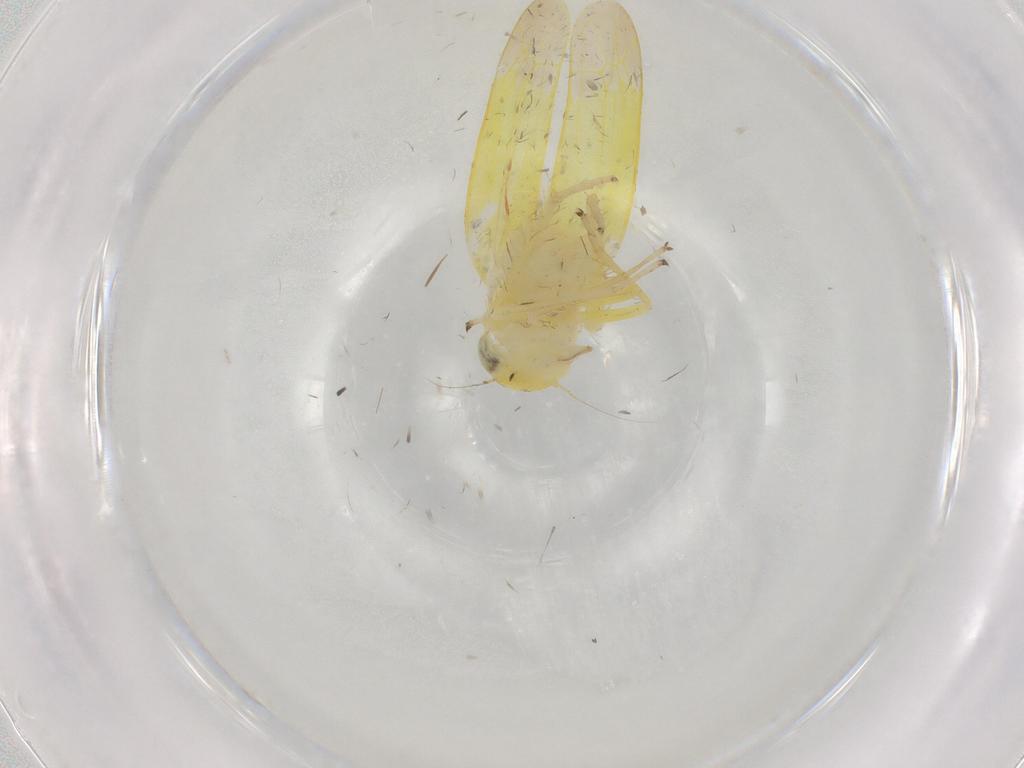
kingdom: Animalia
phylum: Arthropoda
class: Insecta
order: Hemiptera
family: Cicadellidae
